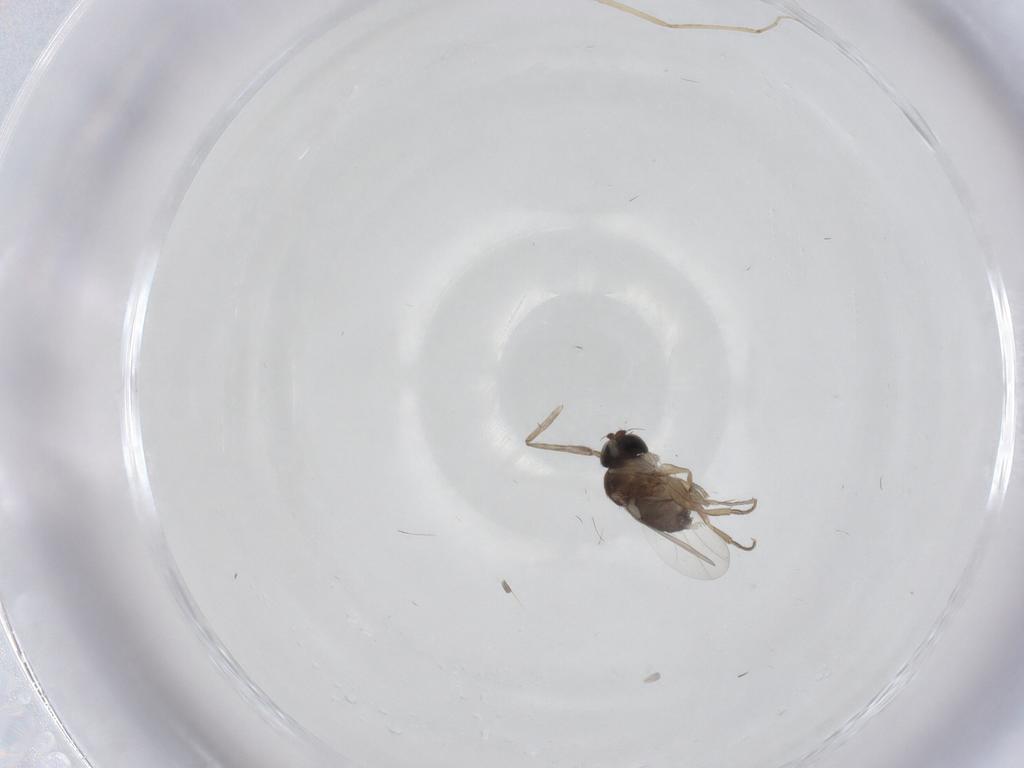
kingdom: Animalia
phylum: Arthropoda
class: Insecta
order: Diptera
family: Cecidomyiidae
